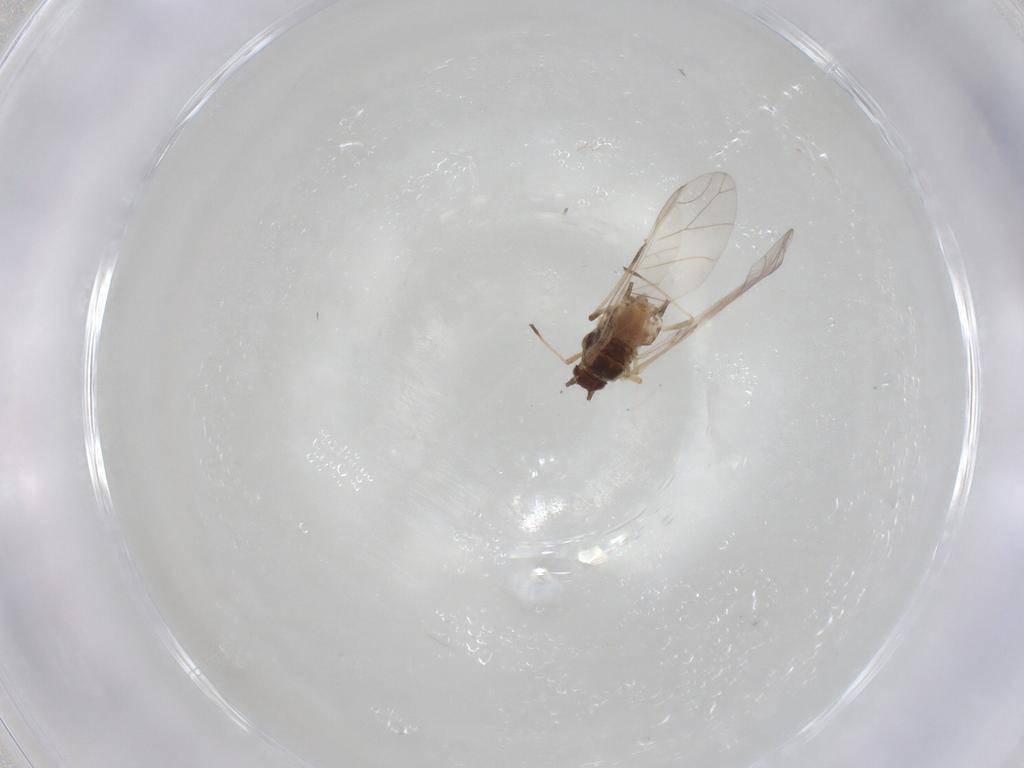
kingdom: Animalia
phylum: Arthropoda
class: Insecta
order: Hemiptera
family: Aphididae
